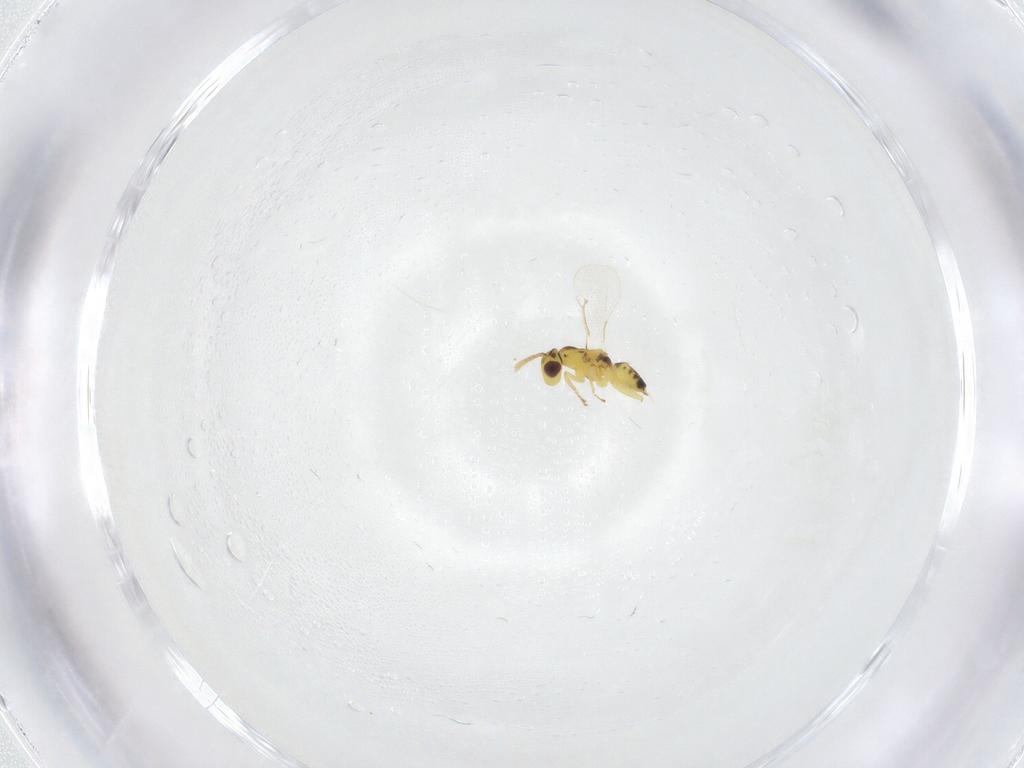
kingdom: Animalia
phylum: Arthropoda
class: Insecta
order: Hymenoptera
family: Eulophidae
